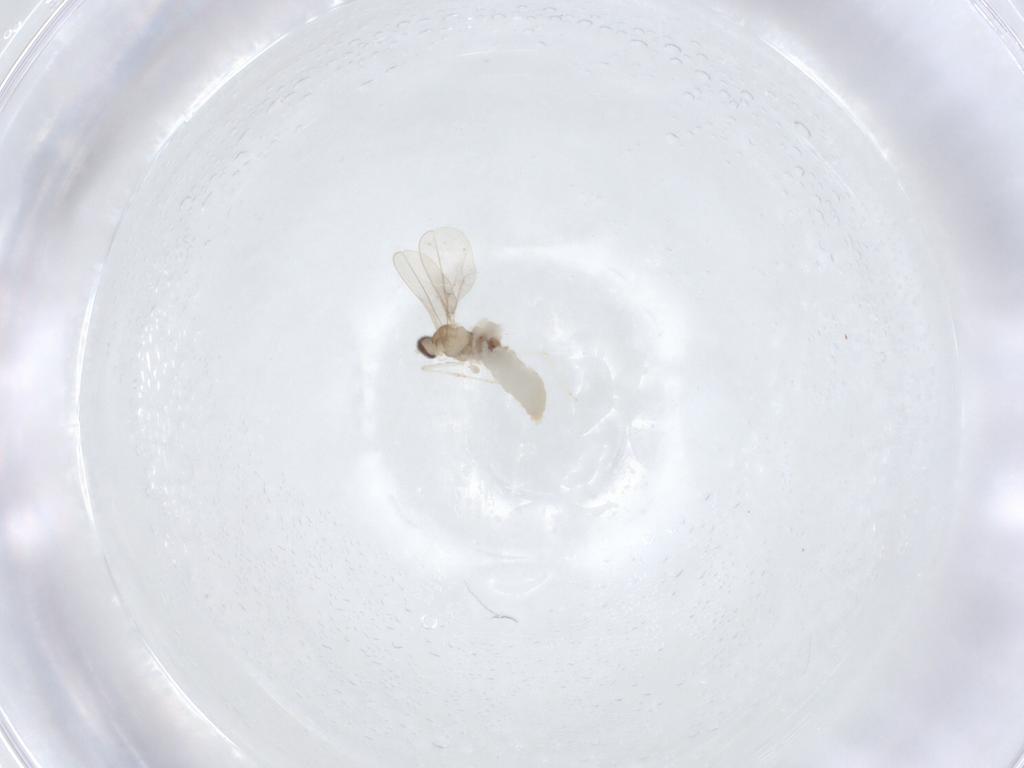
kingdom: Animalia
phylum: Arthropoda
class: Insecta
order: Diptera
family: Cecidomyiidae
